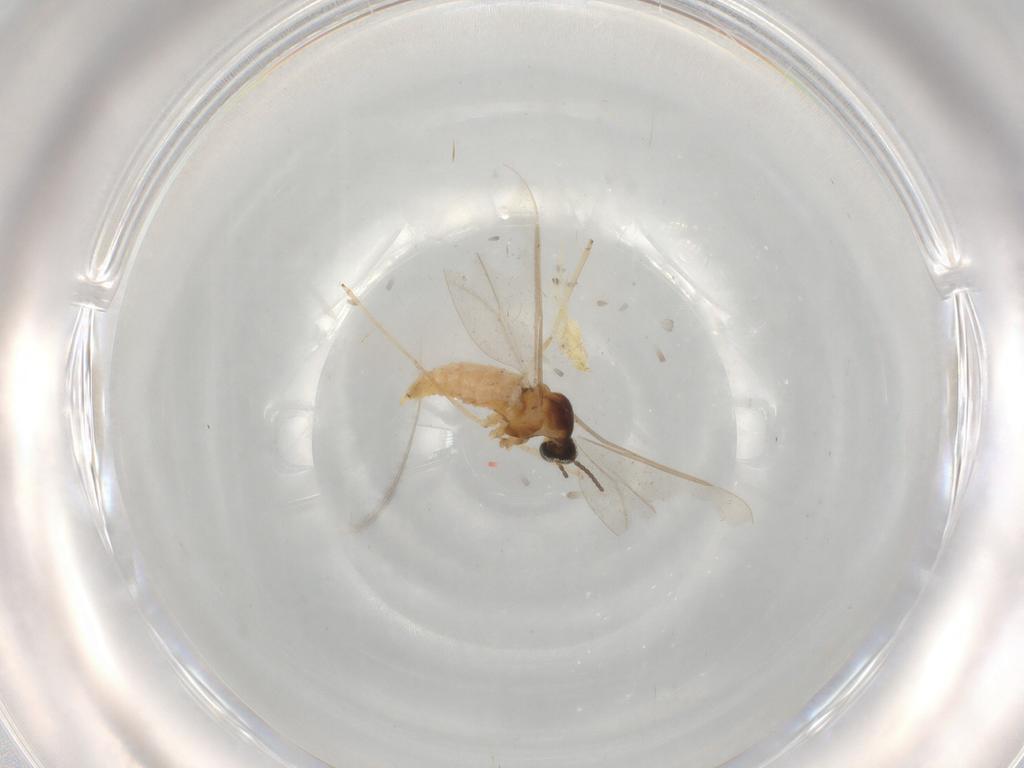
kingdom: Animalia
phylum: Arthropoda
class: Insecta
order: Diptera
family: Cecidomyiidae
